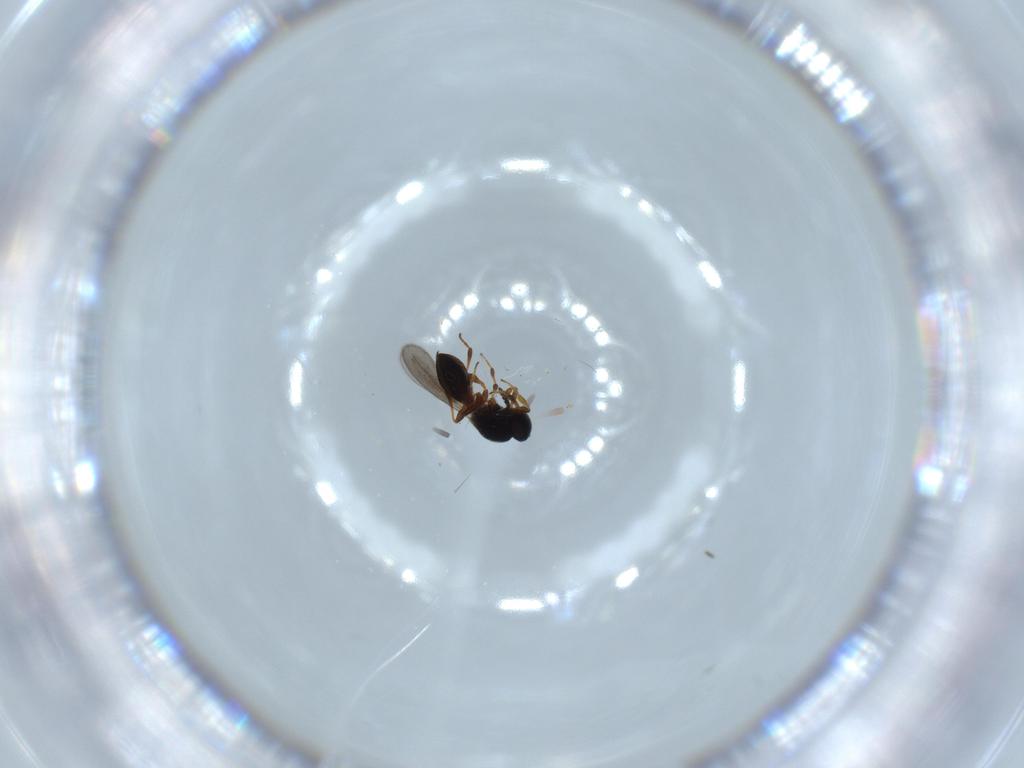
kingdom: Animalia
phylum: Arthropoda
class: Insecta
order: Hymenoptera
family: Platygastridae
